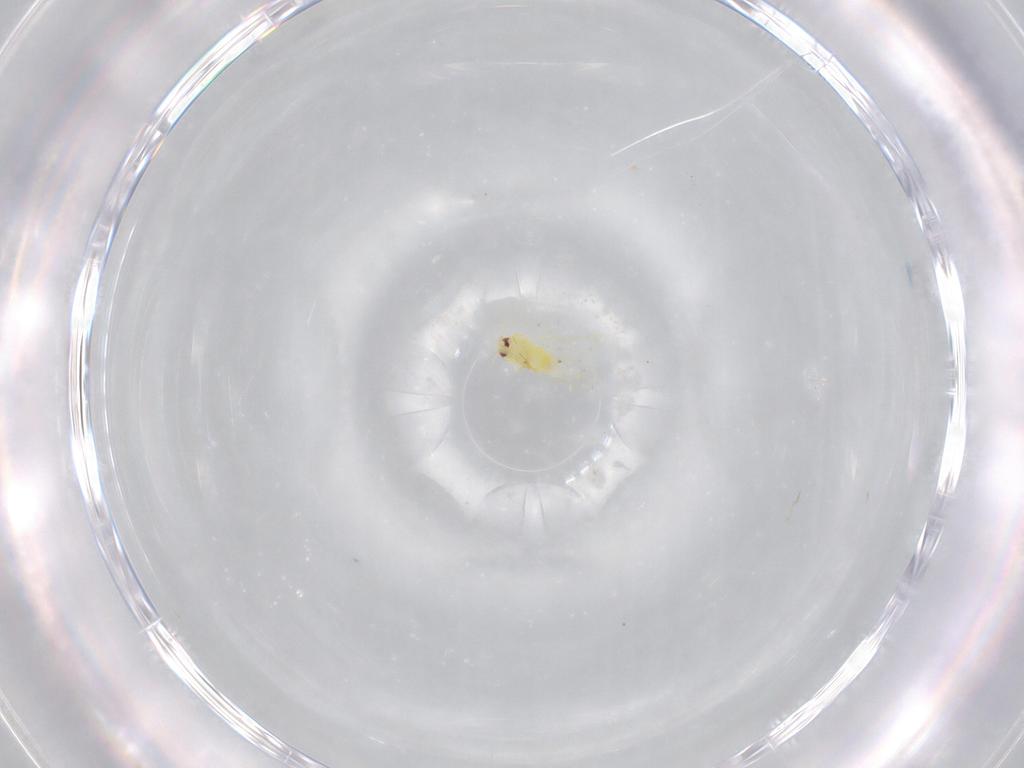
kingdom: Animalia
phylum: Arthropoda
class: Insecta
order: Hemiptera
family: Aleyrodidae
